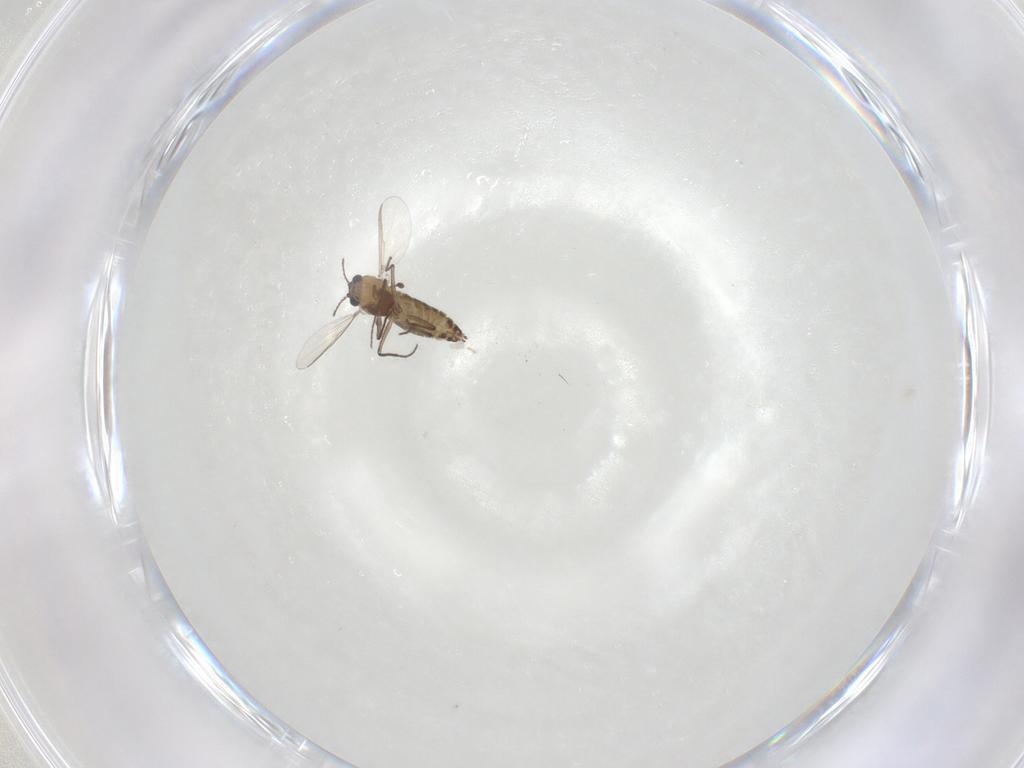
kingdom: Animalia
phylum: Arthropoda
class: Insecta
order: Diptera
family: Chironomidae
